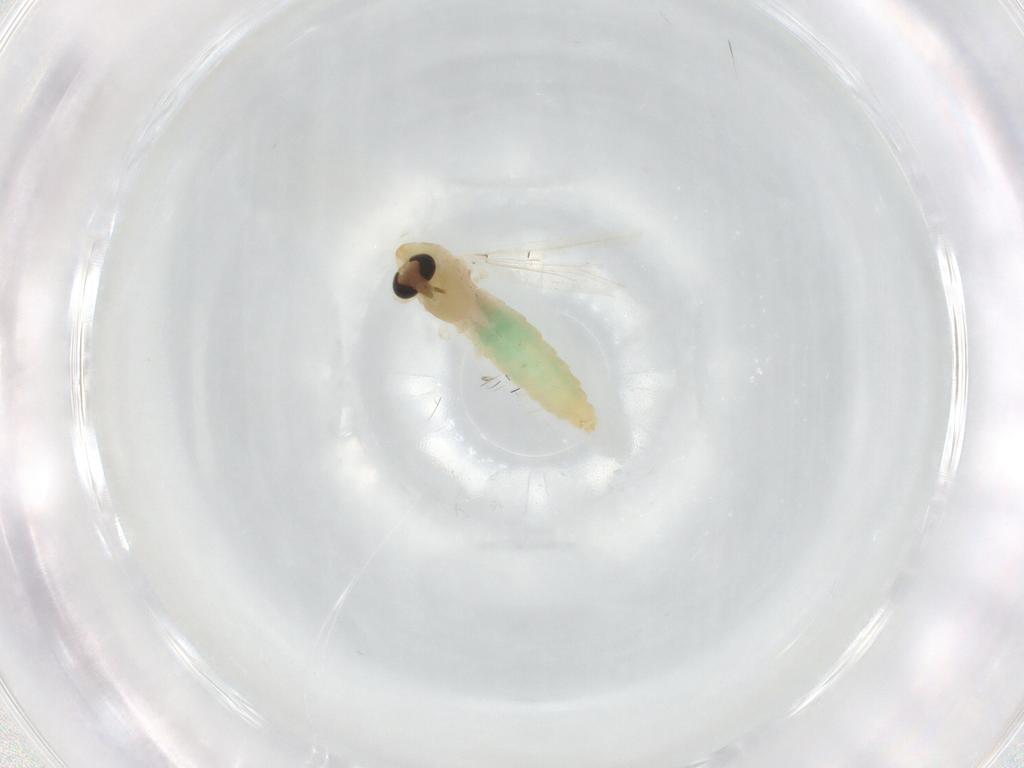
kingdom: Animalia
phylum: Arthropoda
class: Insecta
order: Diptera
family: Chironomidae
